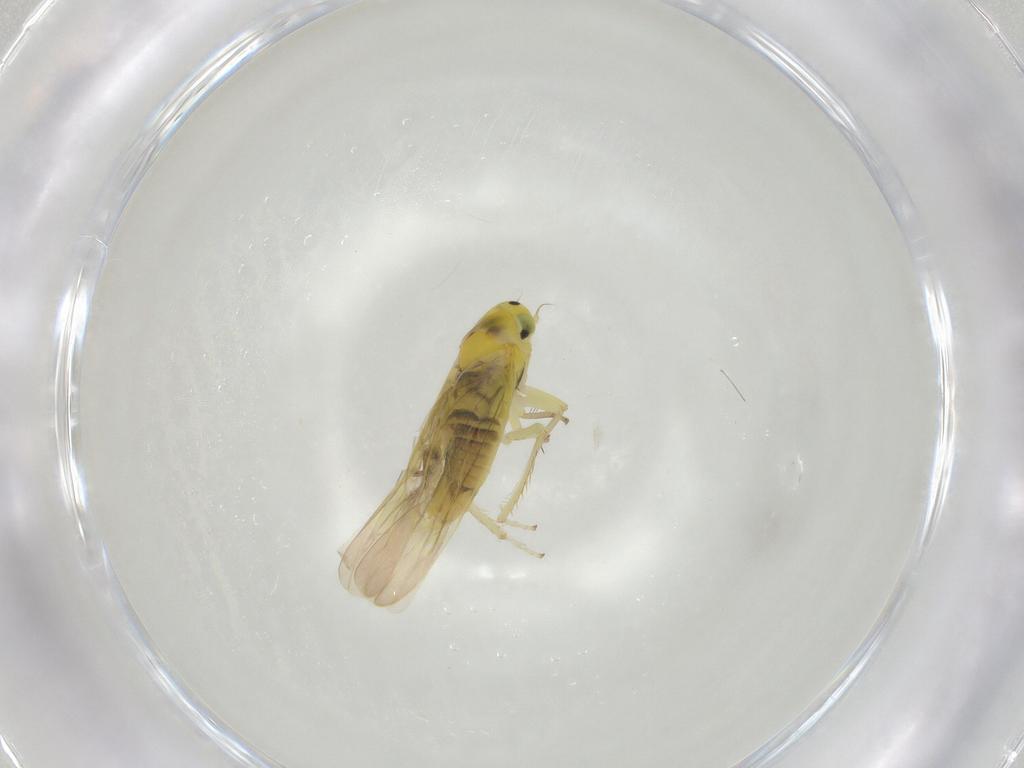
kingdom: Animalia
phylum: Arthropoda
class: Insecta
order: Hemiptera
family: Cicadellidae
